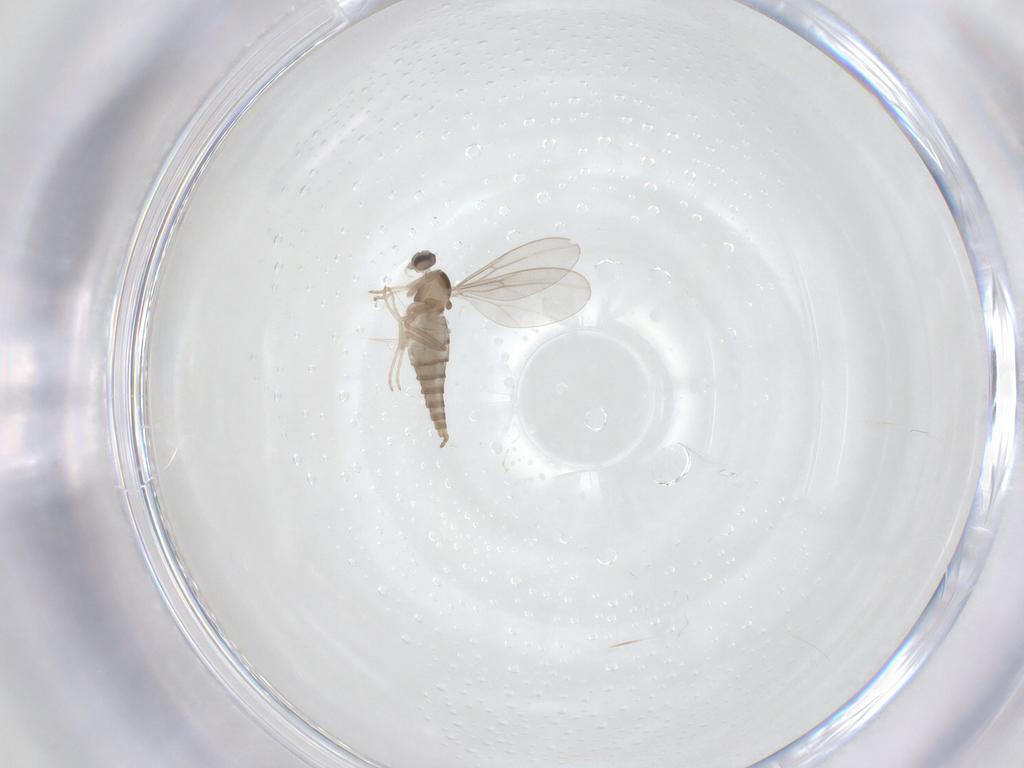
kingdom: Animalia
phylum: Arthropoda
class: Insecta
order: Diptera
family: Cecidomyiidae
